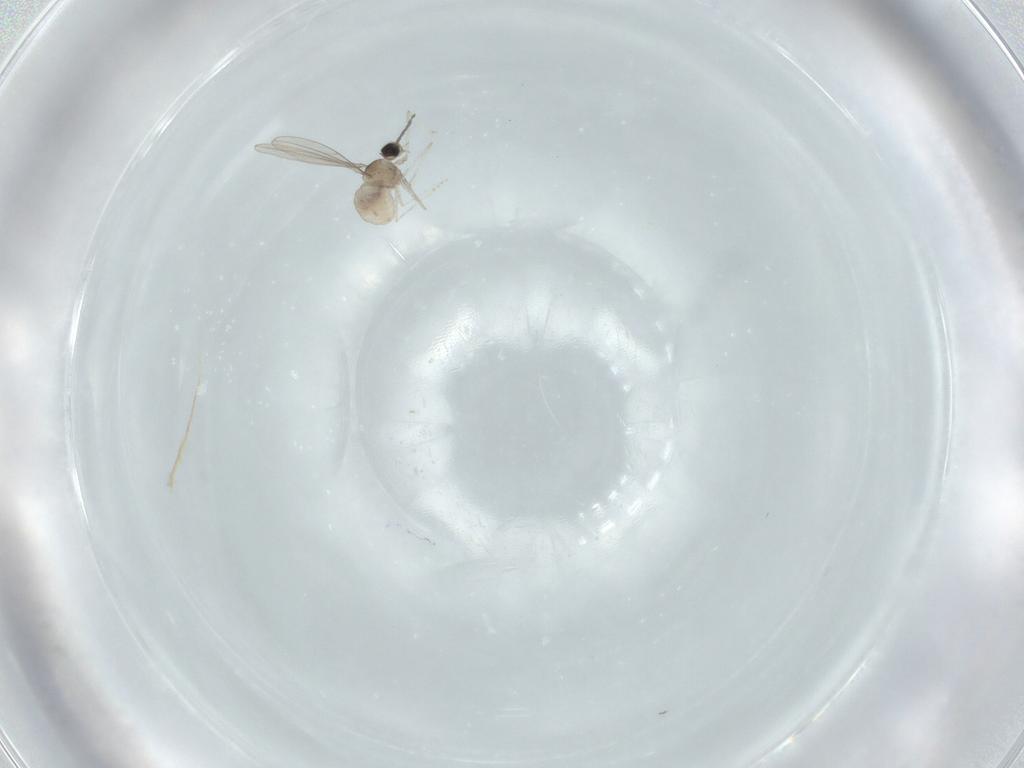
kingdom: Animalia
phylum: Arthropoda
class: Insecta
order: Diptera
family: Cecidomyiidae
